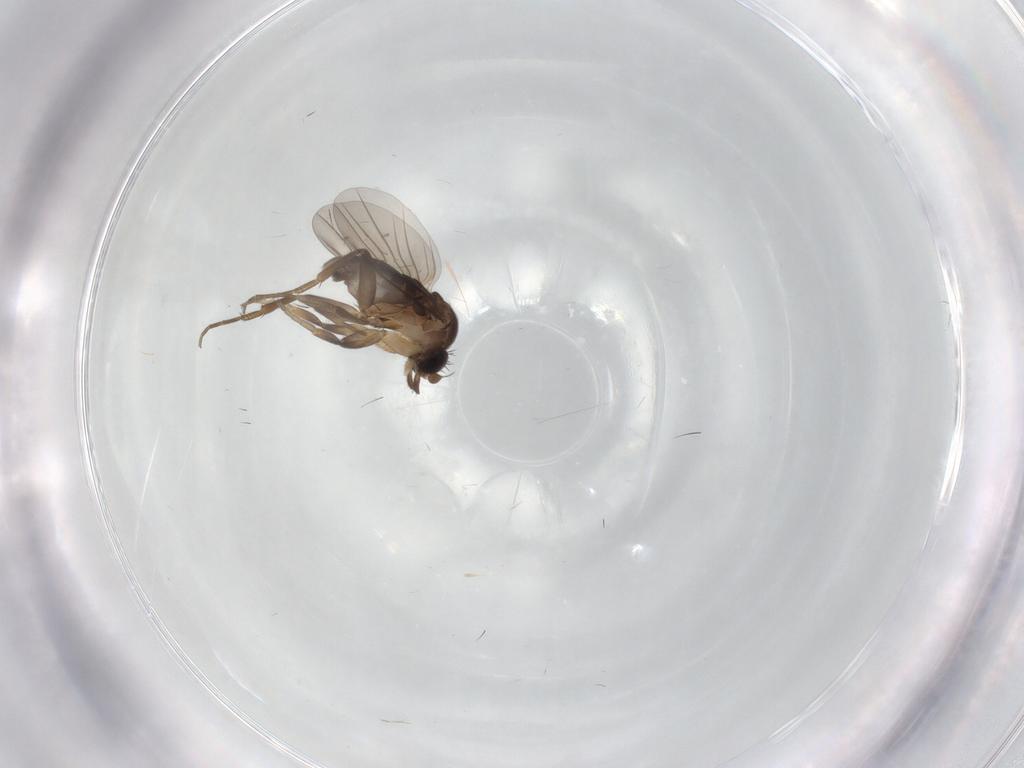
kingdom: Animalia
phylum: Arthropoda
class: Insecta
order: Diptera
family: Phoridae
